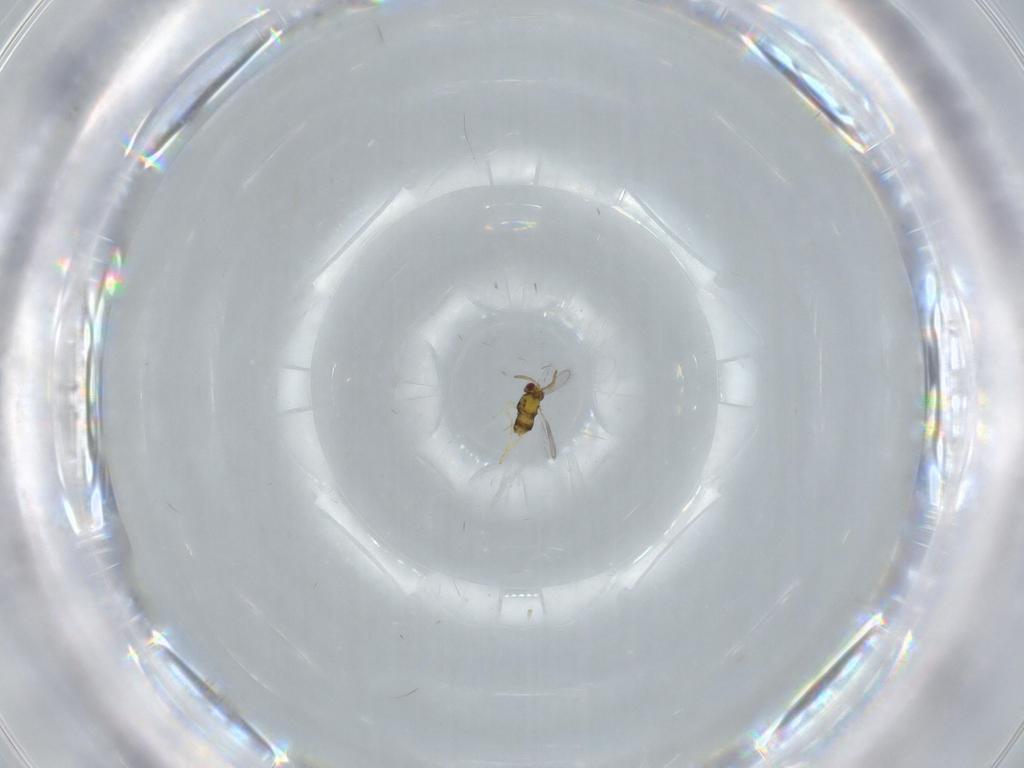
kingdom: Animalia
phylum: Arthropoda
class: Insecta
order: Hymenoptera
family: Aphelinidae
